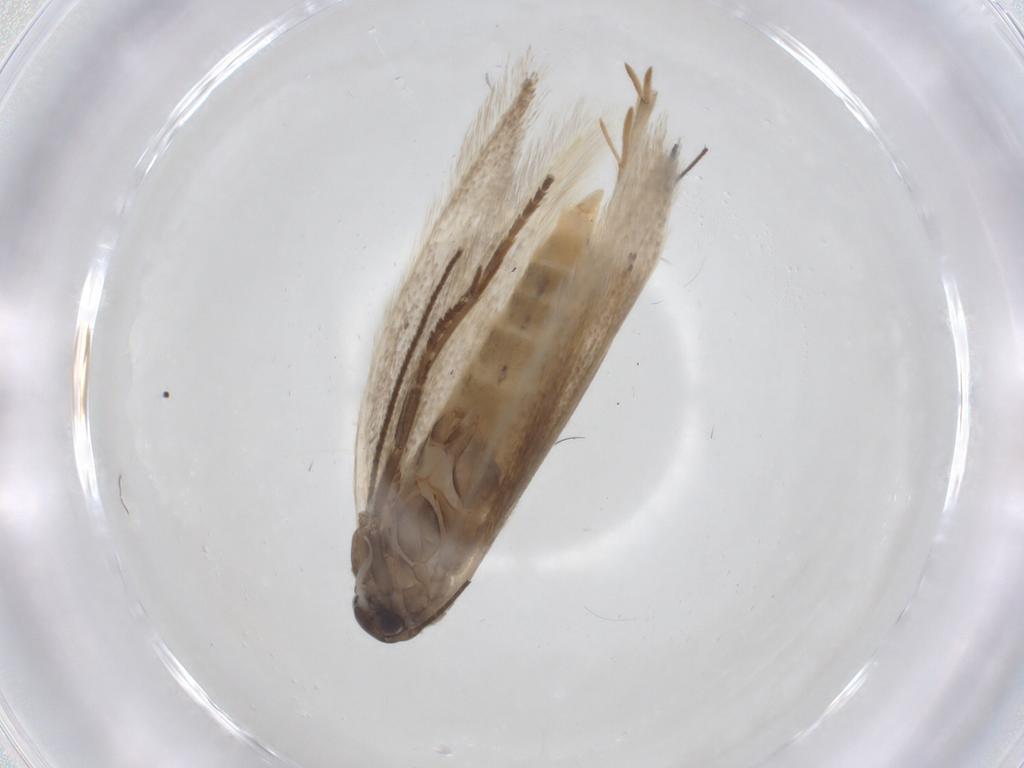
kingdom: Animalia
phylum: Arthropoda
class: Insecta
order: Lepidoptera
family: Elachistidae
